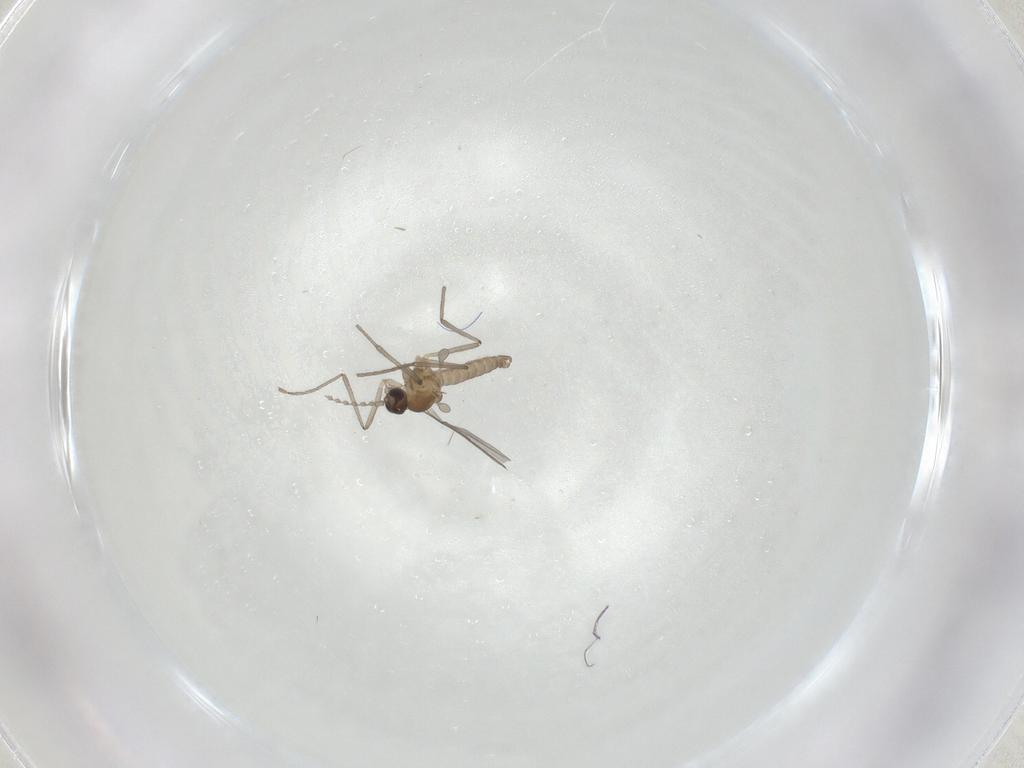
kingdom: Animalia
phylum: Arthropoda
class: Insecta
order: Diptera
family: Cecidomyiidae
